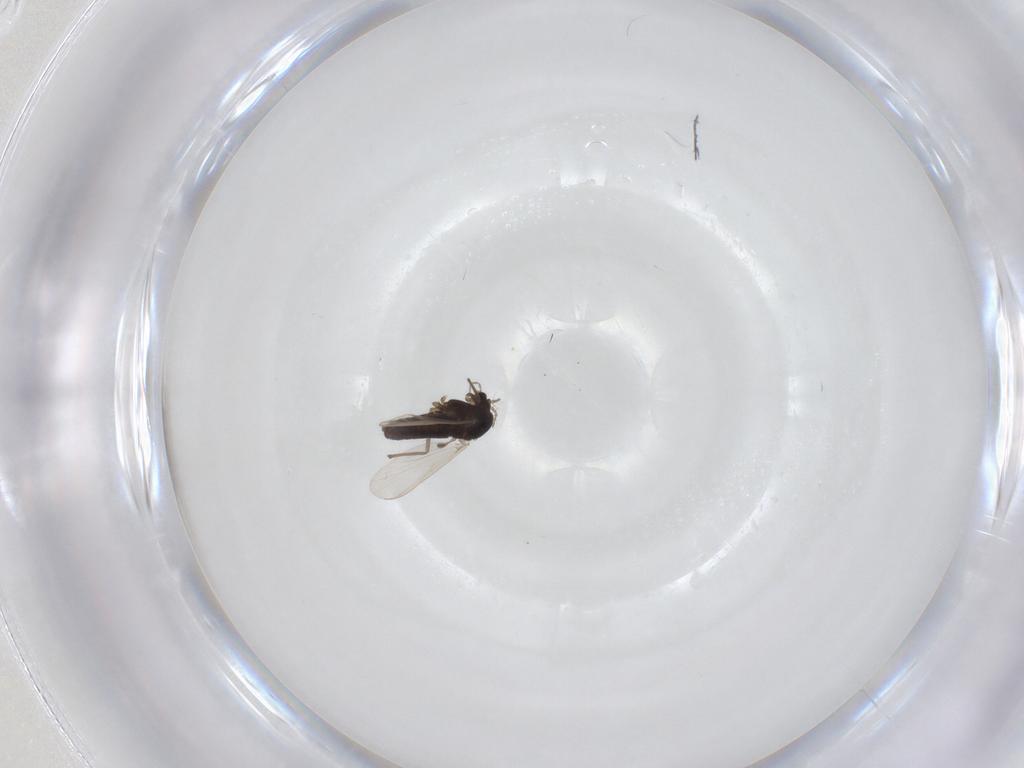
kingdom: Animalia
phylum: Arthropoda
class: Insecta
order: Diptera
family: Chironomidae
